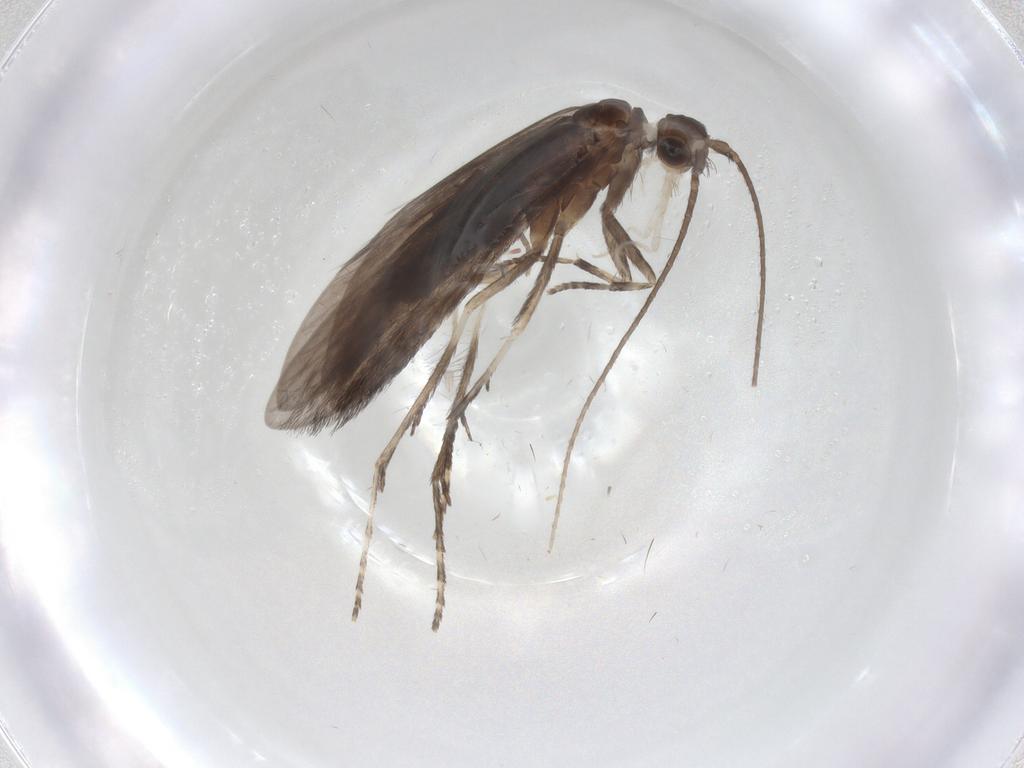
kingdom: Animalia
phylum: Arthropoda
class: Insecta
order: Trichoptera
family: Xiphocentronidae
